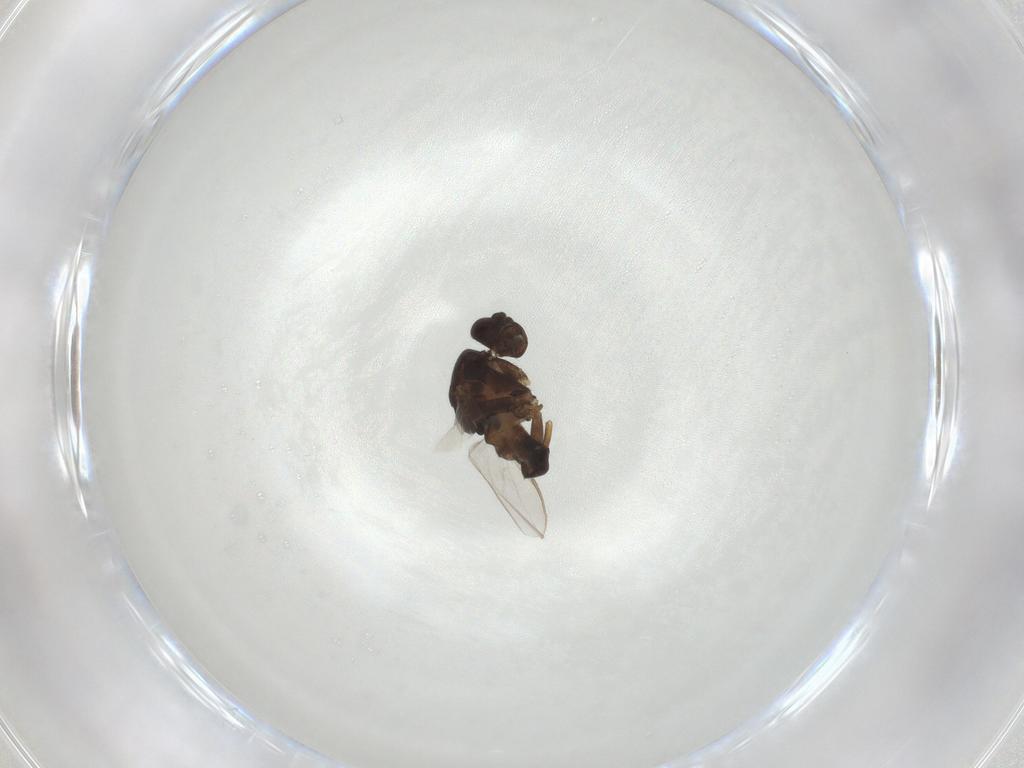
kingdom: Animalia
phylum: Arthropoda
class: Insecta
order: Diptera
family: Sphaeroceridae
